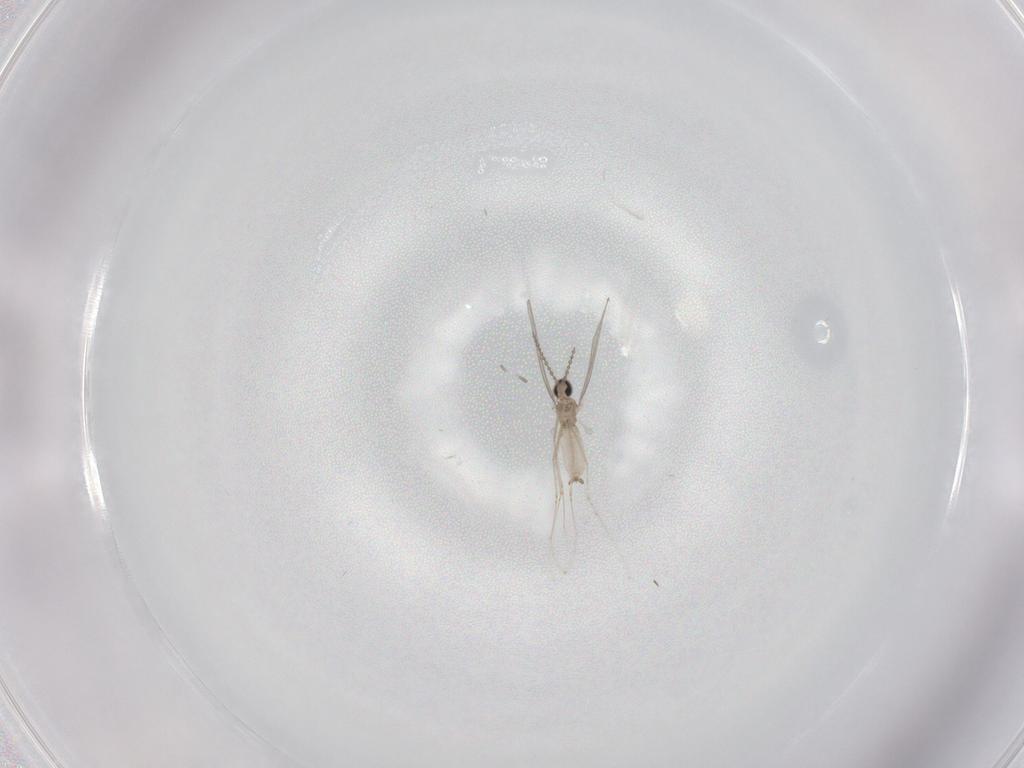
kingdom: Animalia
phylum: Arthropoda
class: Insecta
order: Diptera
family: Cecidomyiidae
